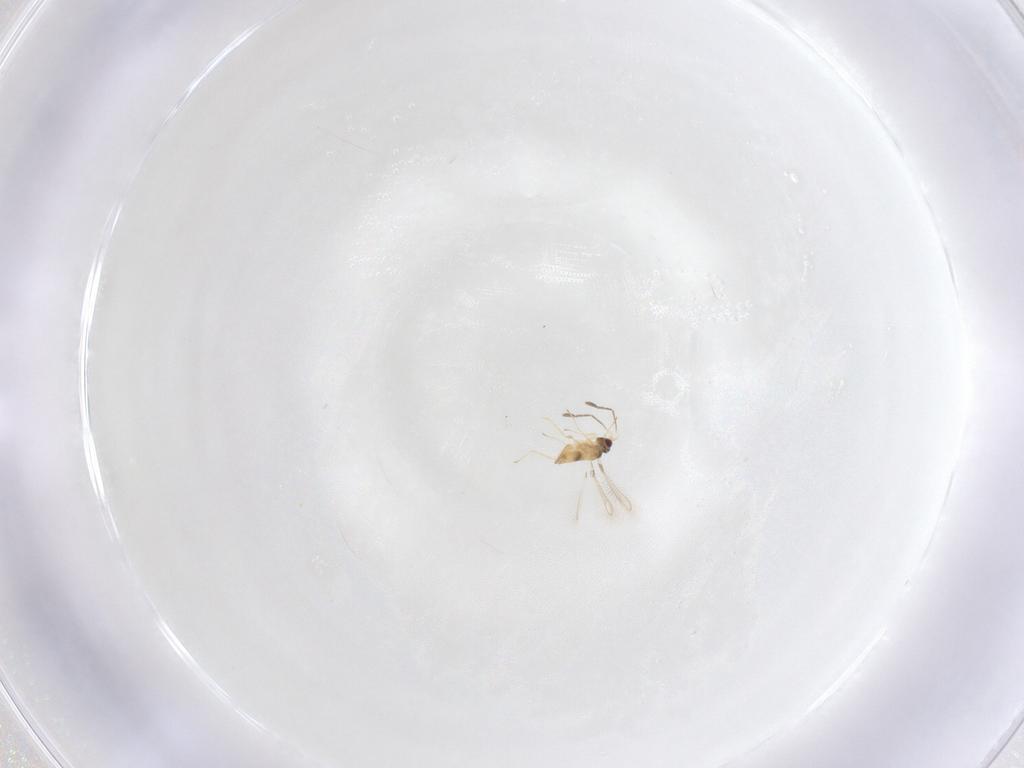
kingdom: Animalia
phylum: Arthropoda
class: Insecta
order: Hymenoptera
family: Mymaridae
